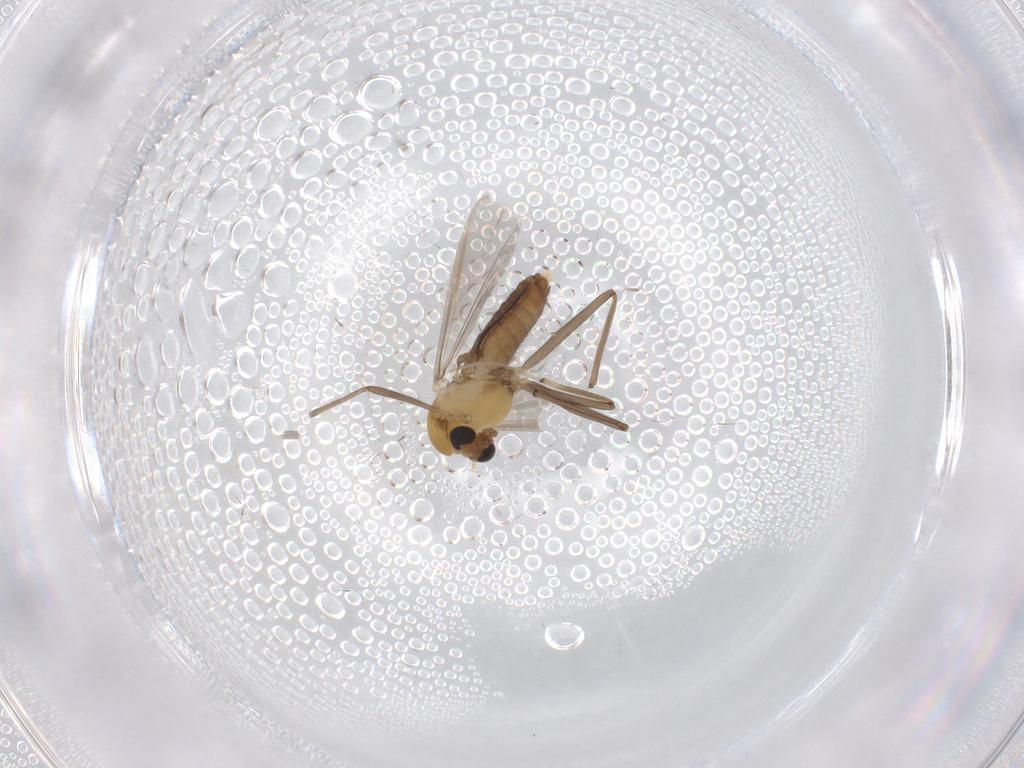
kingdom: Animalia
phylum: Arthropoda
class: Insecta
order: Diptera
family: Chironomidae
